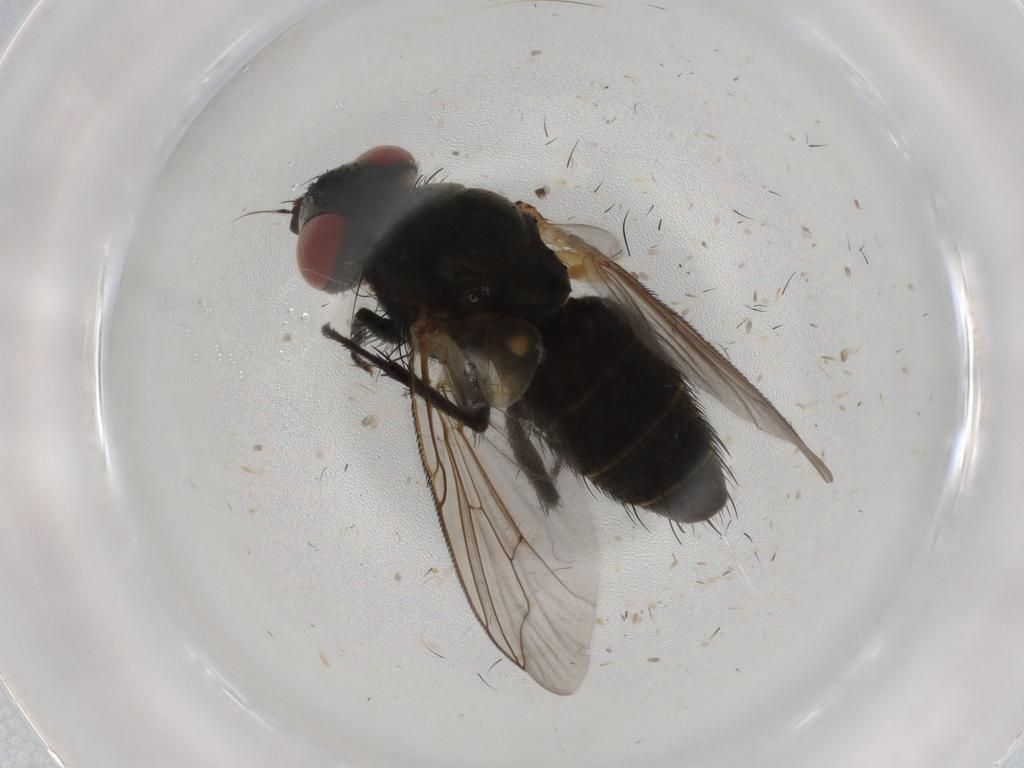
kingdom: Animalia
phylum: Arthropoda
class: Insecta
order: Diptera
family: Sarcophagidae
